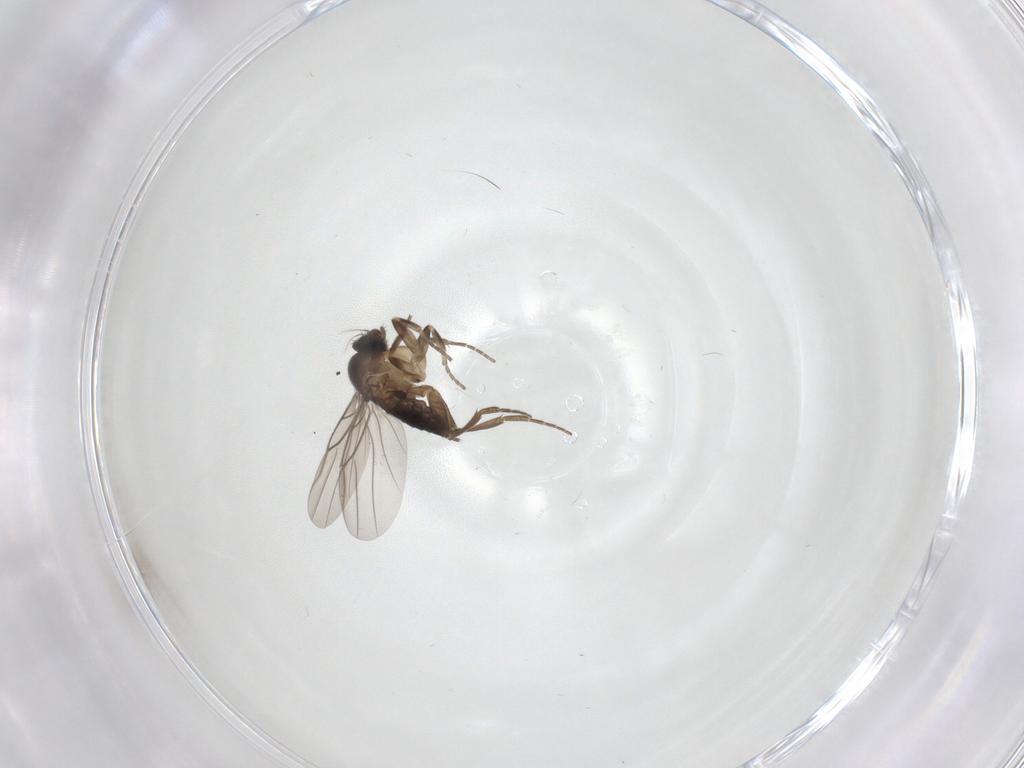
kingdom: Animalia
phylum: Arthropoda
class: Insecta
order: Diptera
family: Phoridae
